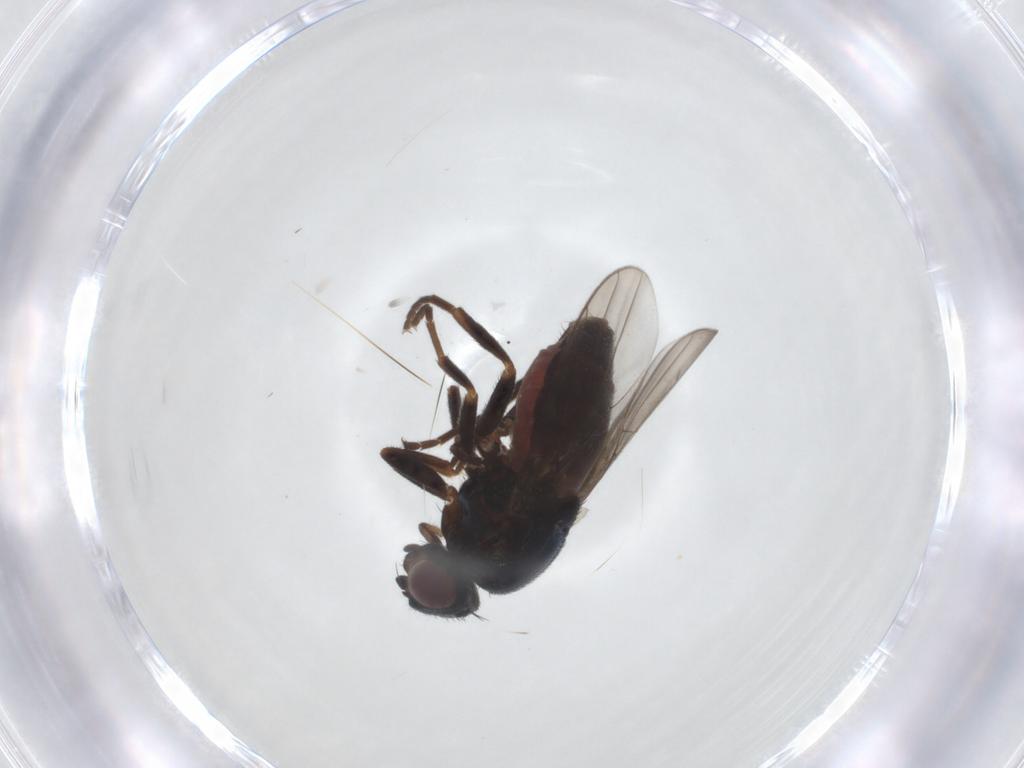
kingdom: Animalia
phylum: Arthropoda
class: Insecta
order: Diptera
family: Chloropidae
